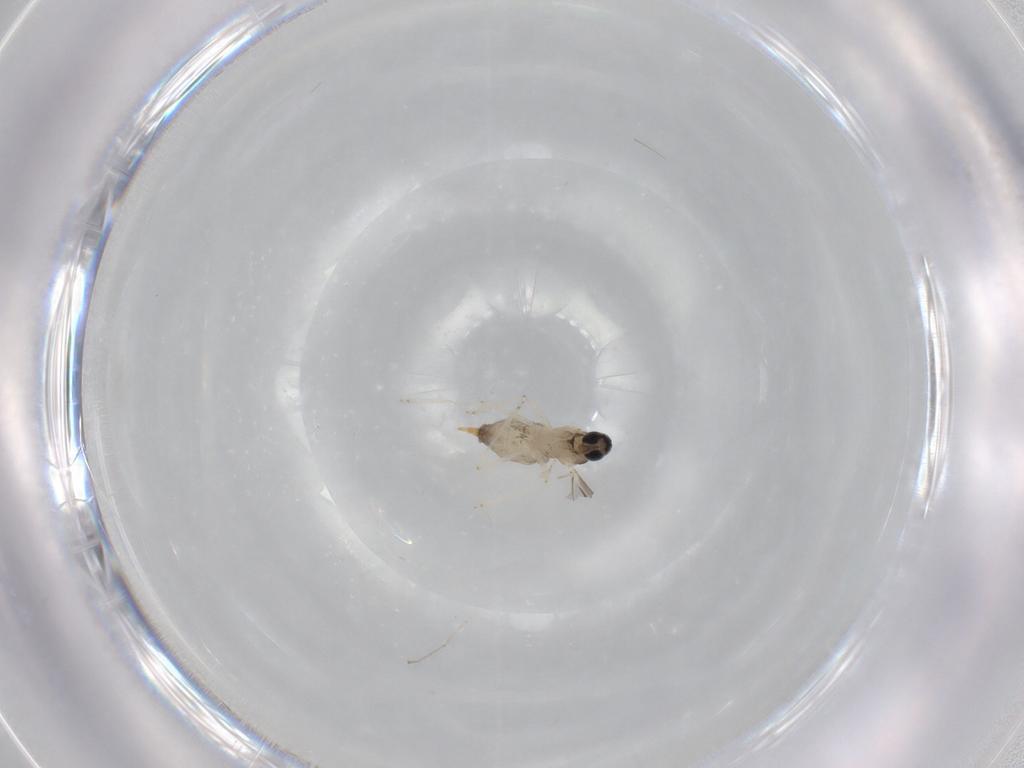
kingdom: Animalia
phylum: Arthropoda
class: Insecta
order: Diptera
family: Cecidomyiidae
